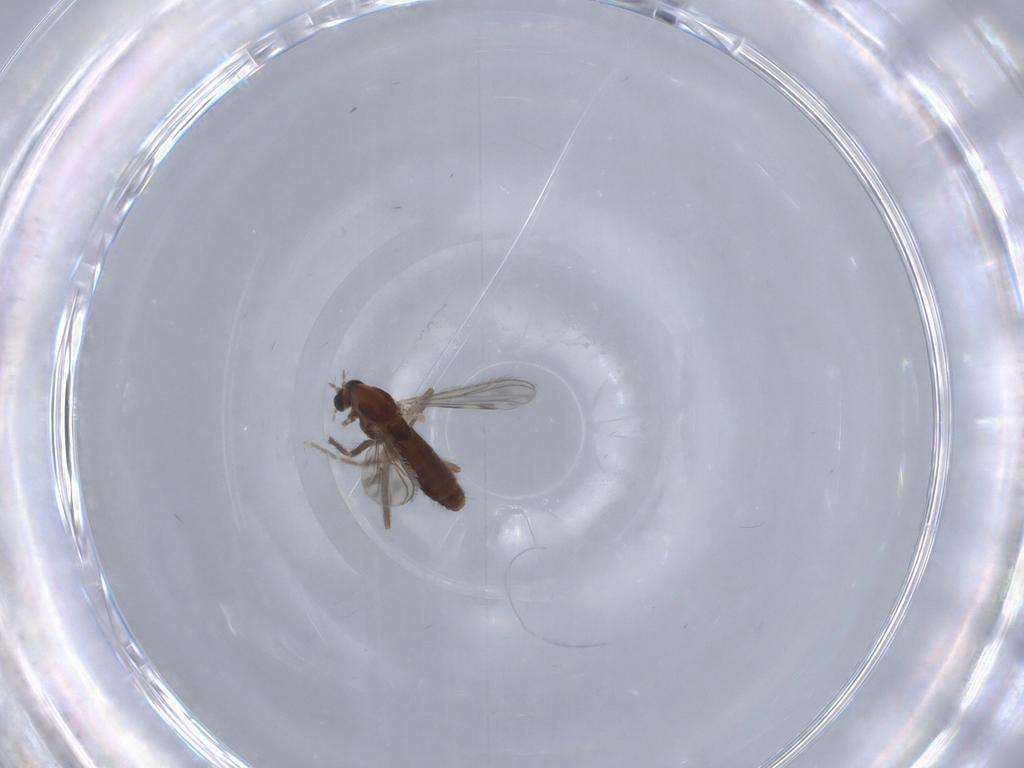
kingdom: Animalia
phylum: Arthropoda
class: Insecta
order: Diptera
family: Chironomidae
